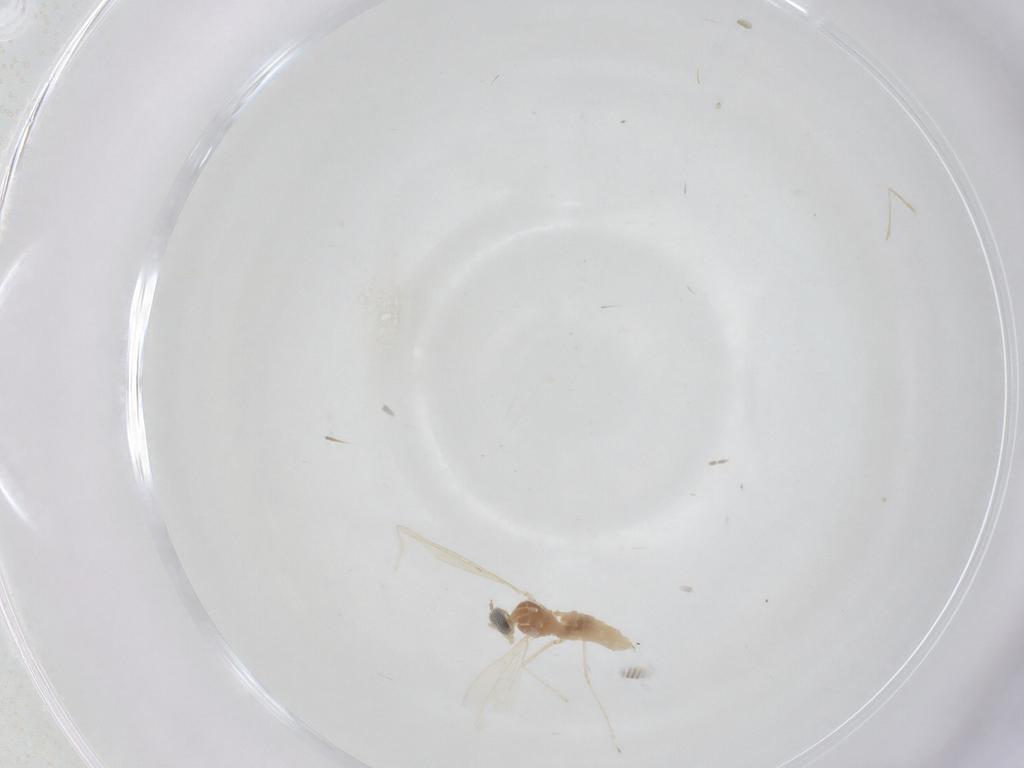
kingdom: Animalia
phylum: Arthropoda
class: Insecta
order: Diptera
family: Cecidomyiidae
